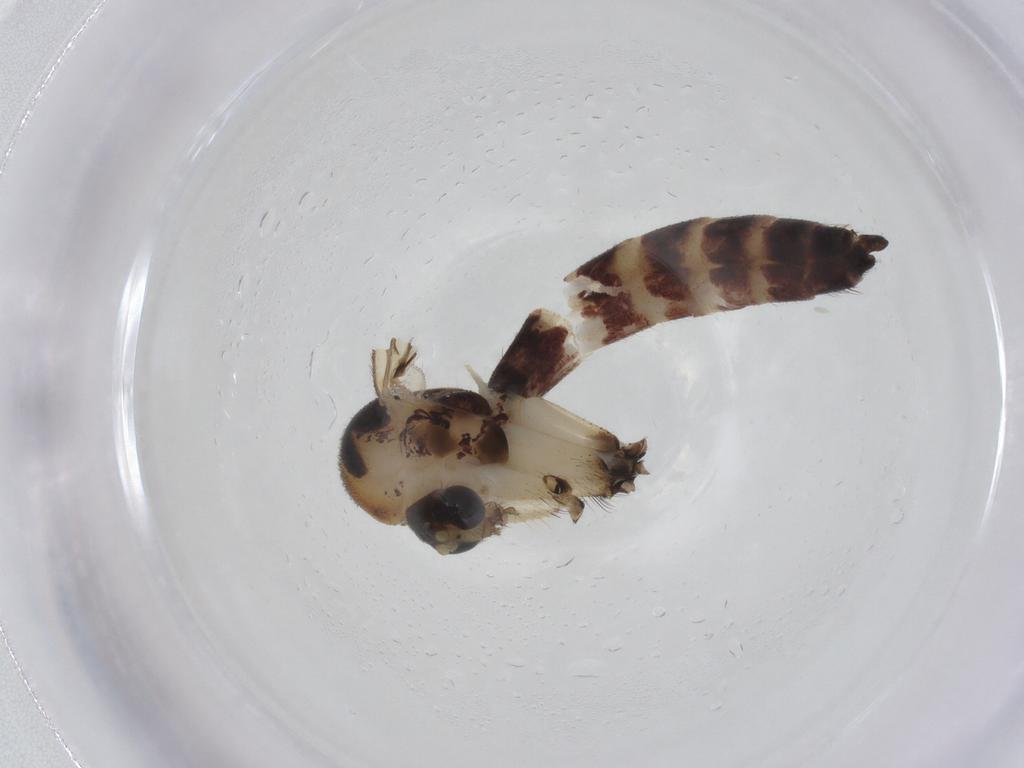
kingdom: Animalia
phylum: Arthropoda
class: Insecta
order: Diptera
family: Mycetophilidae
